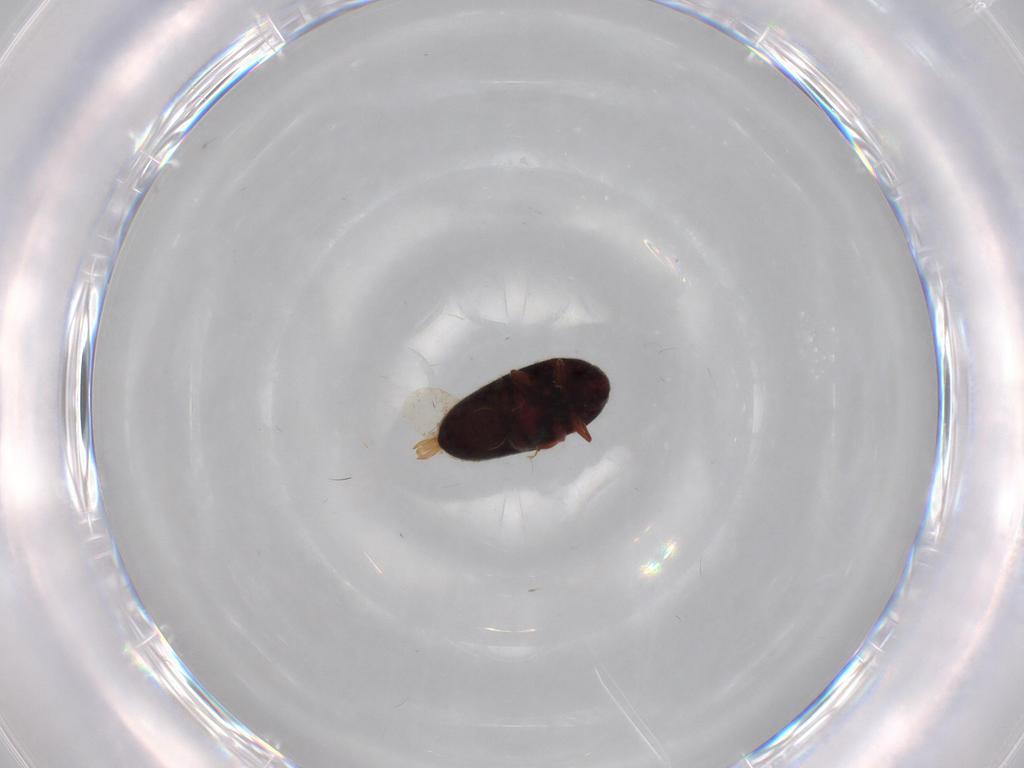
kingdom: Animalia
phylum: Arthropoda
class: Insecta
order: Coleoptera
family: Throscidae
